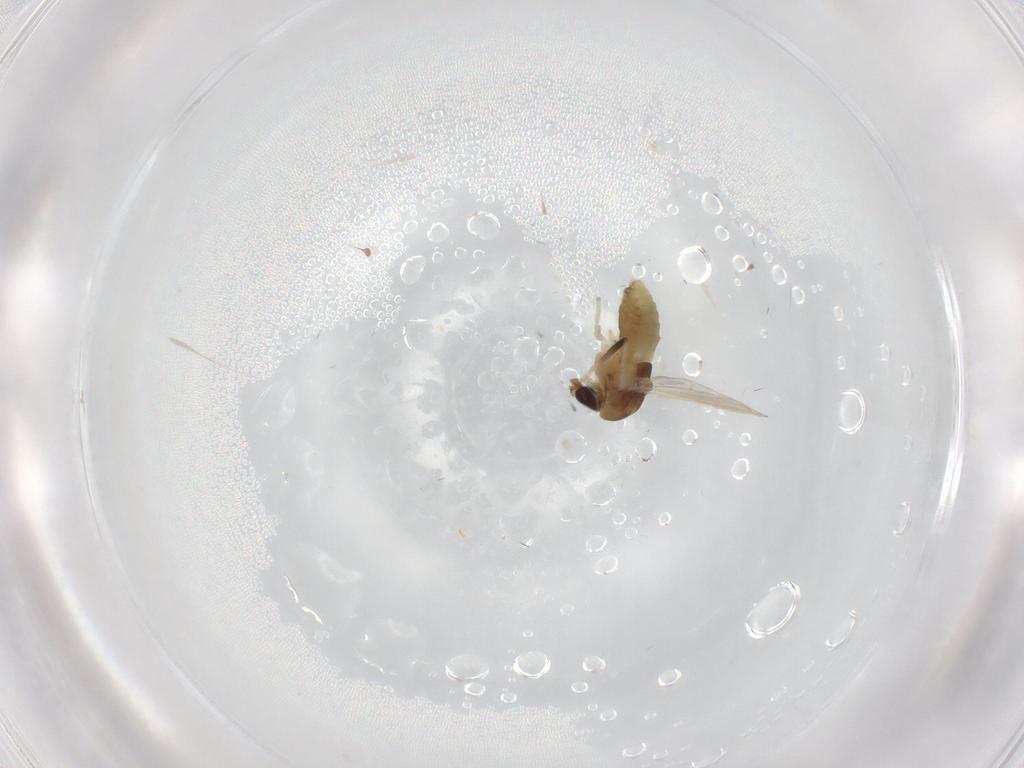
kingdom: Animalia
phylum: Arthropoda
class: Insecta
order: Diptera
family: Chironomidae
